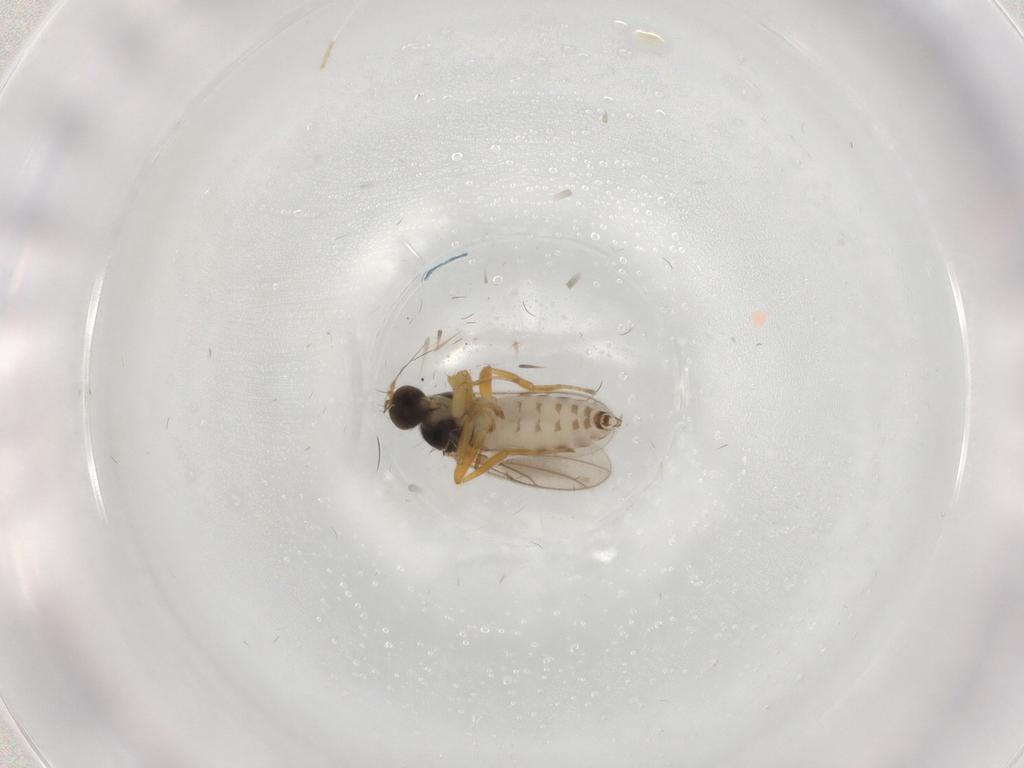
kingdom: Animalia
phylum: Arthropoda
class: Insecta
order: Diptera
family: Hybotidae
